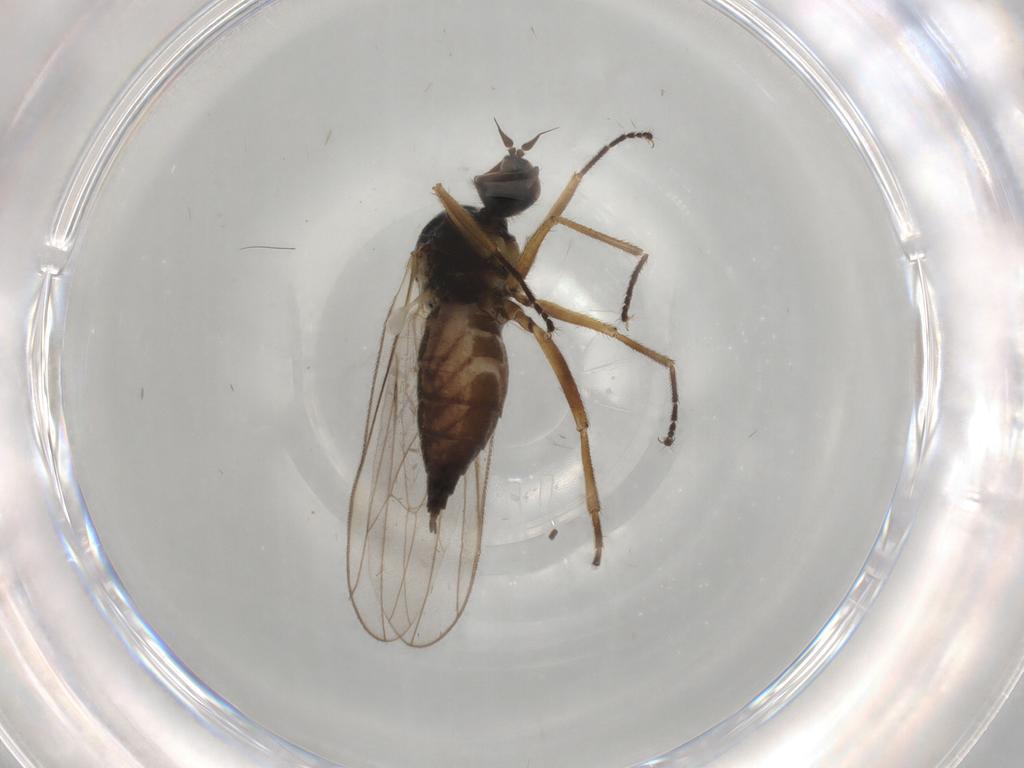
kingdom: Animalia
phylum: Arthropoda
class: Insecta
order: Diptera
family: Hybotidae
